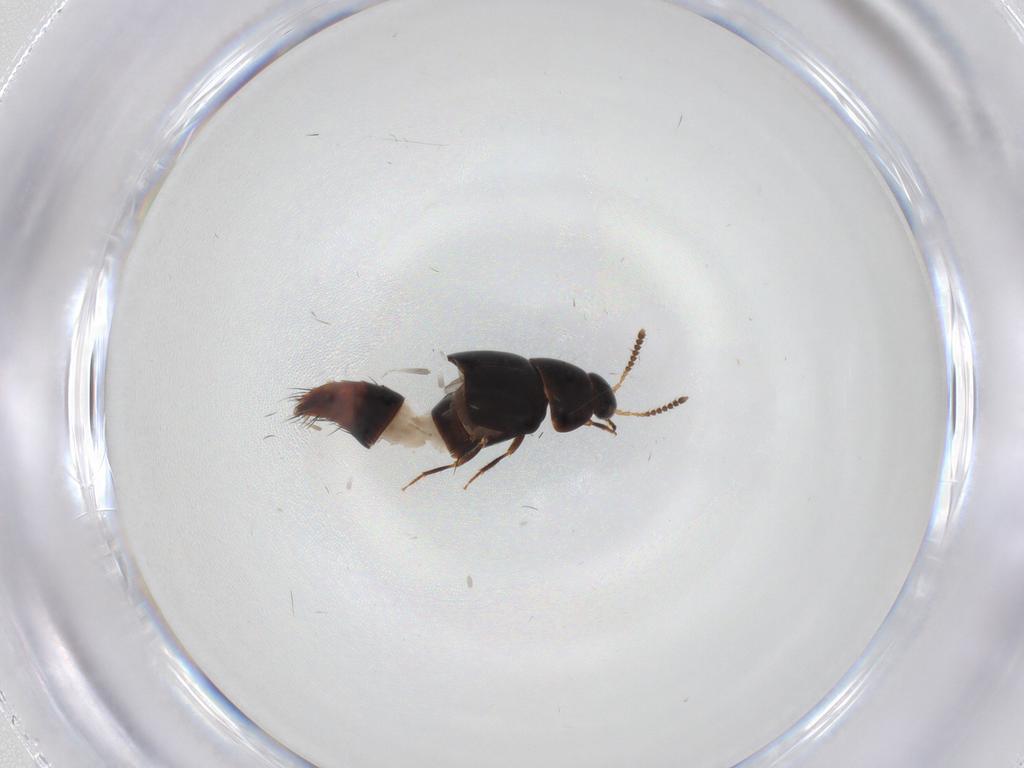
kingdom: Animalia
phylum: Arthropoda
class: Insecta
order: Coleoptera
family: Staphylinidae
